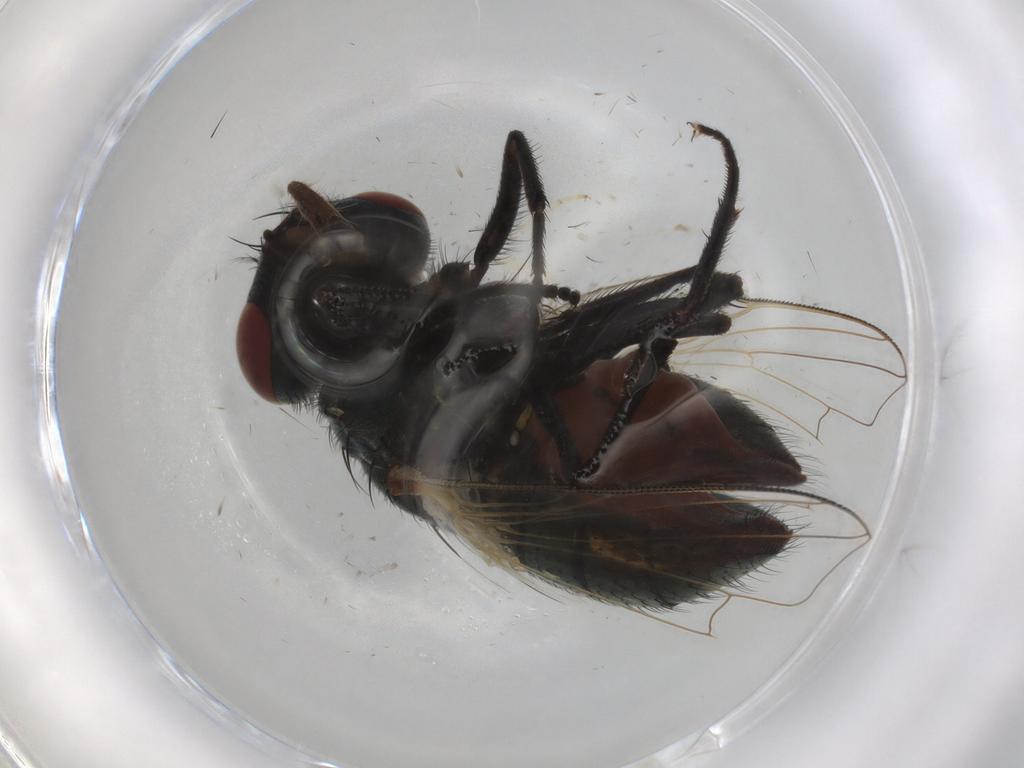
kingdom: Animalia
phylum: Arthropoda
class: Insecta
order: Diptera
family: Ceratopogonidae
